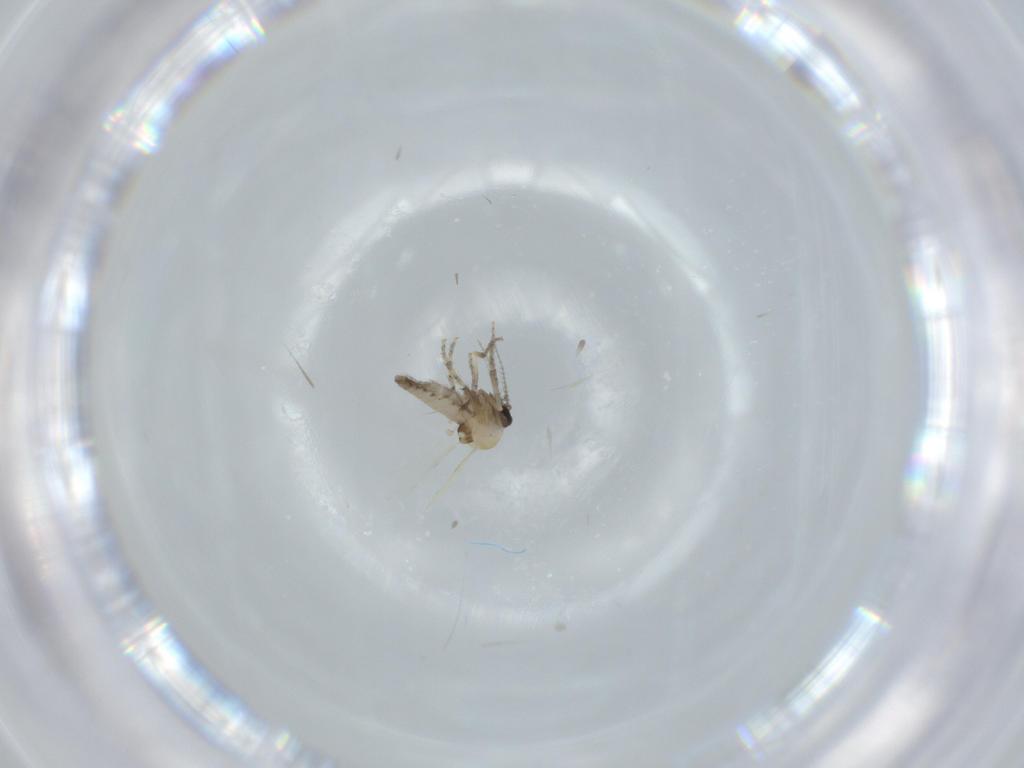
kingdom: Animalia
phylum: Arthropoda
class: Insecta
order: Diptera
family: Ceratopogonidae
